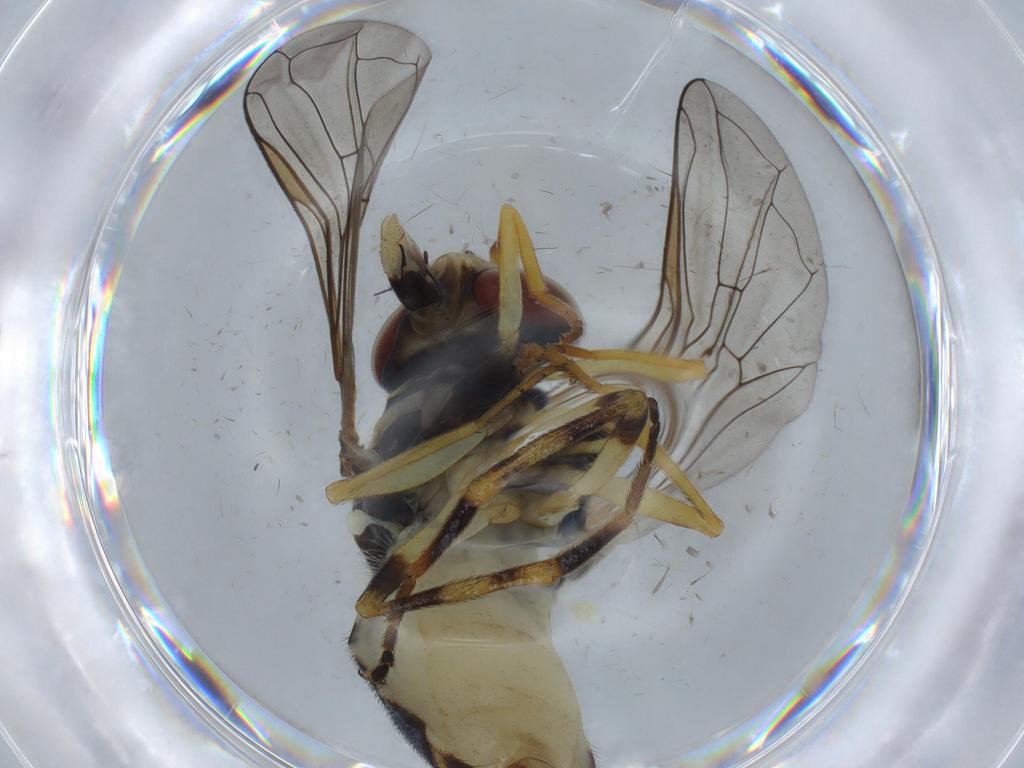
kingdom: Animalia
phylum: Arthropoda
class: Insecta
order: Diptera
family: Syrphidae
